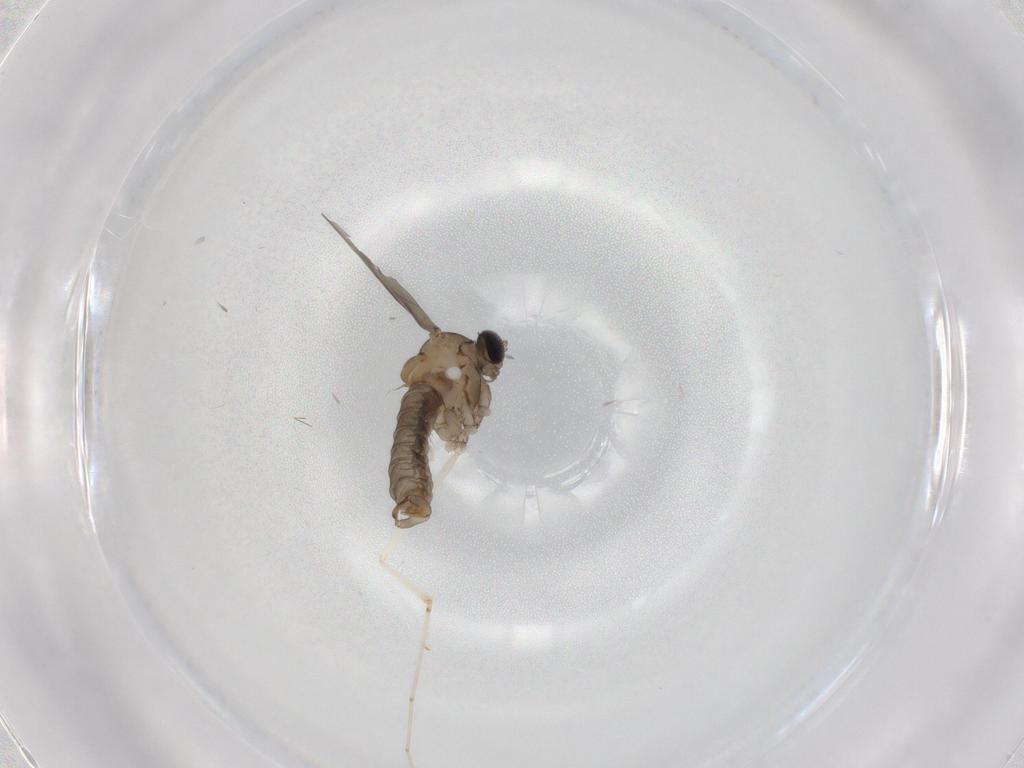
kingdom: Animalia
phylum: Arthropoda
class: Insecta
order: Diptera
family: Cecidomyiidae
